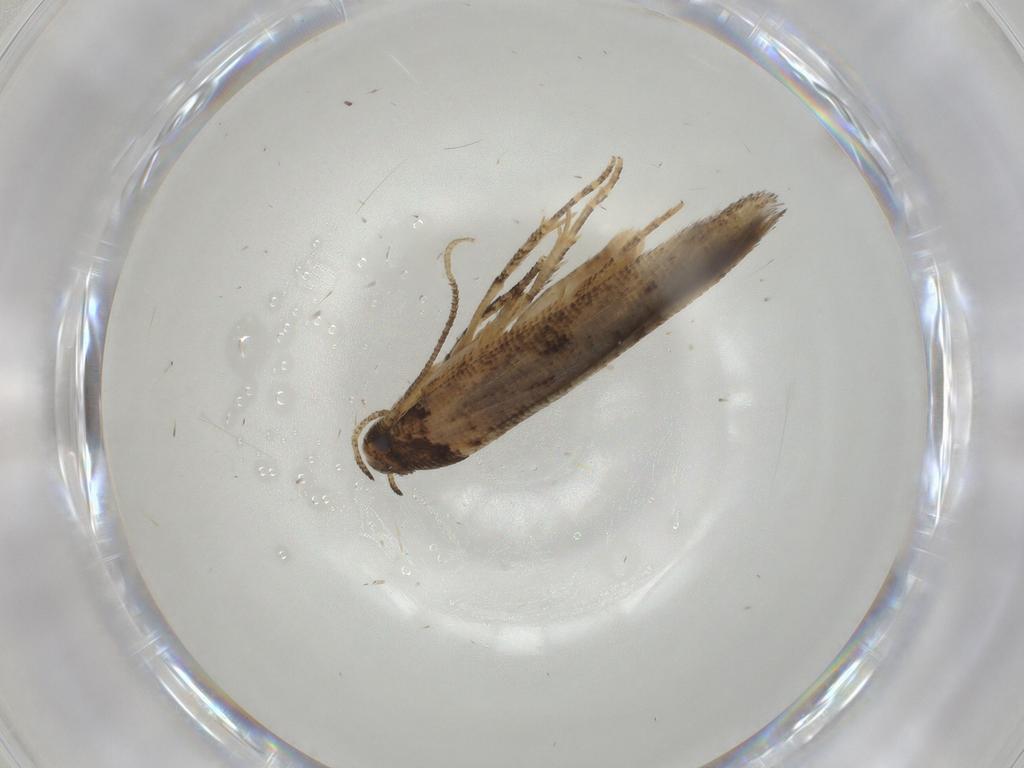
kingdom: Animalia
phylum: Arthropoda
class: Insecta
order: Lepidoptera
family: Gelechiidae
